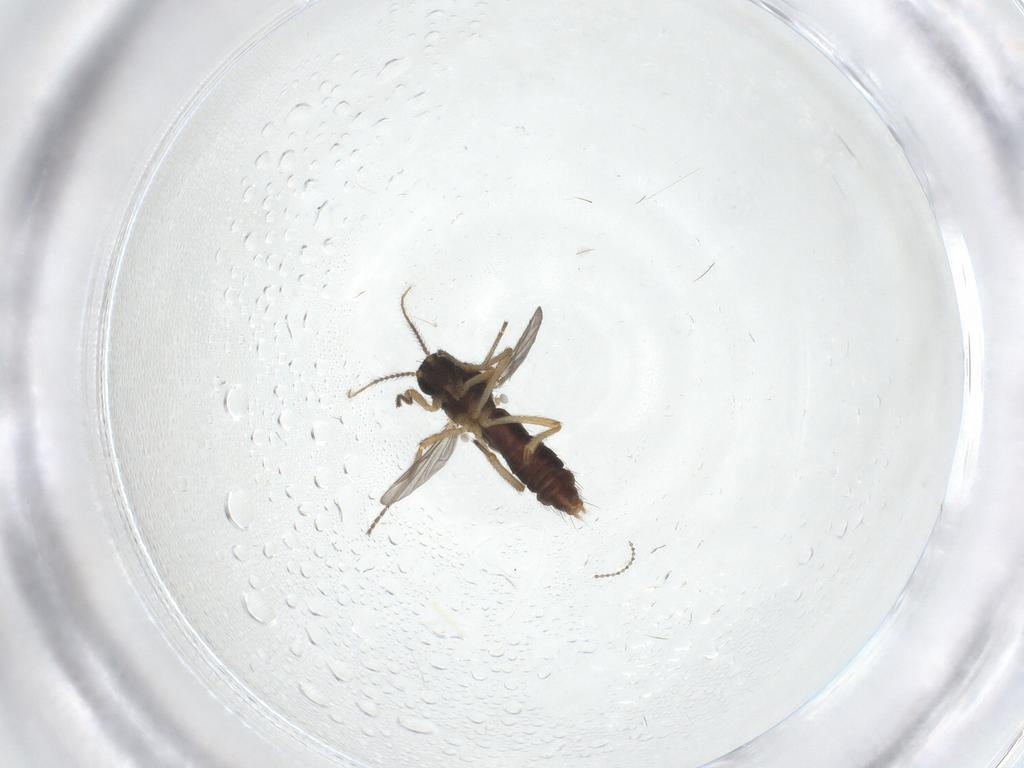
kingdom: Animalia
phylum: Arthropoda
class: Insecta
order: Diptera
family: Ceratopogonidae
